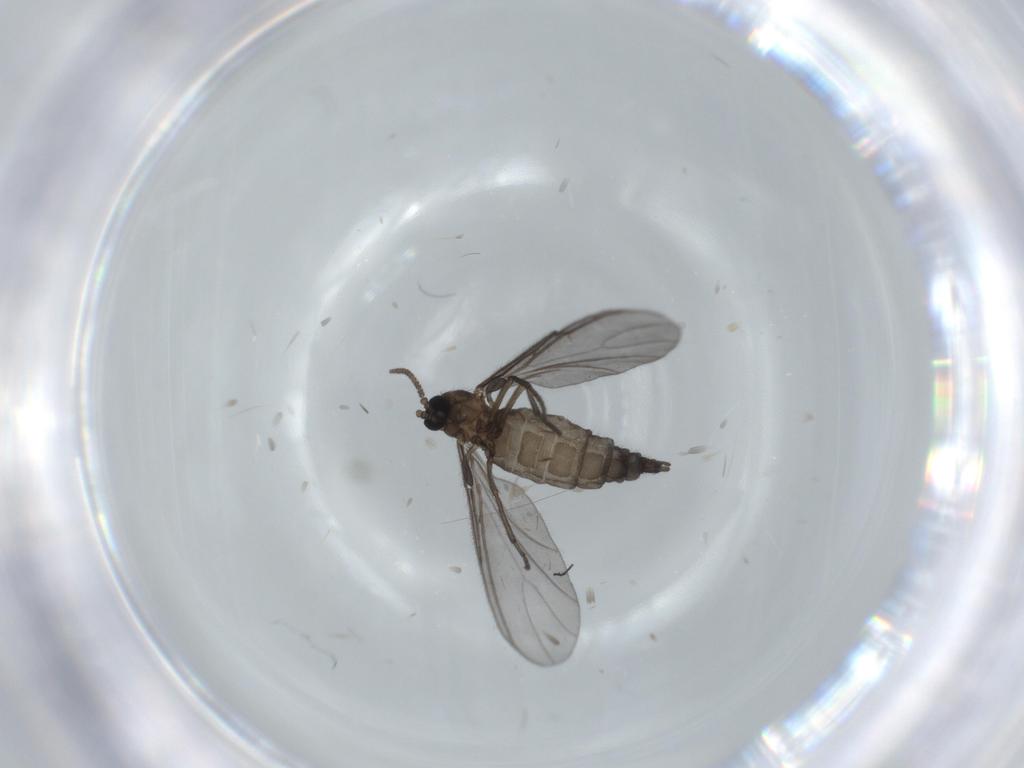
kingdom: Animalia
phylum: Arthropoda
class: Insecta
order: Diptera
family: Sciaridae
